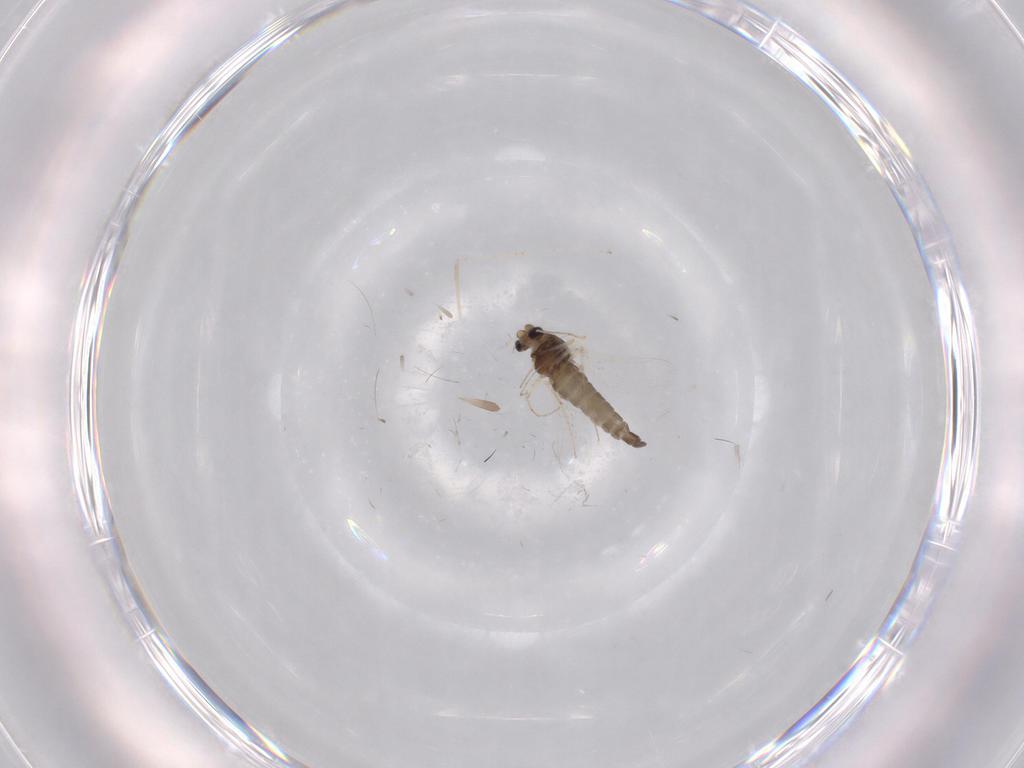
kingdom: Animalia
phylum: Arthropoda
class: Insecta
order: Diptera
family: Chironomidae
